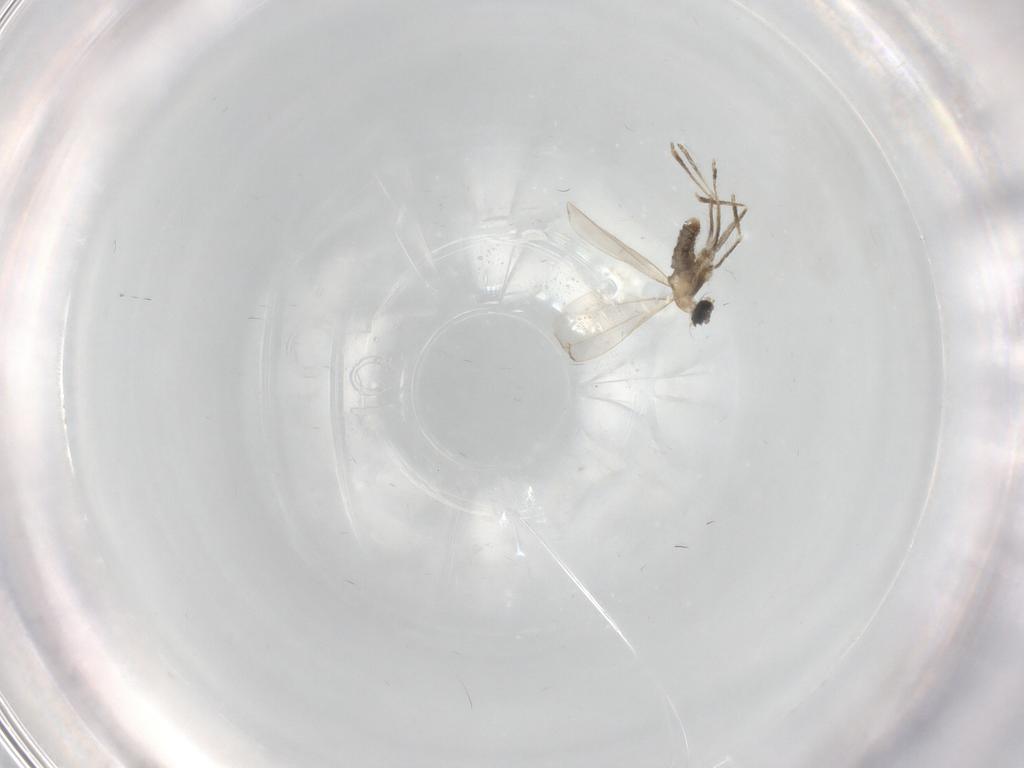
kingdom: Animalia
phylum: Arthropoda
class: Insecta
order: Diptera
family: Cecidomyiidae
